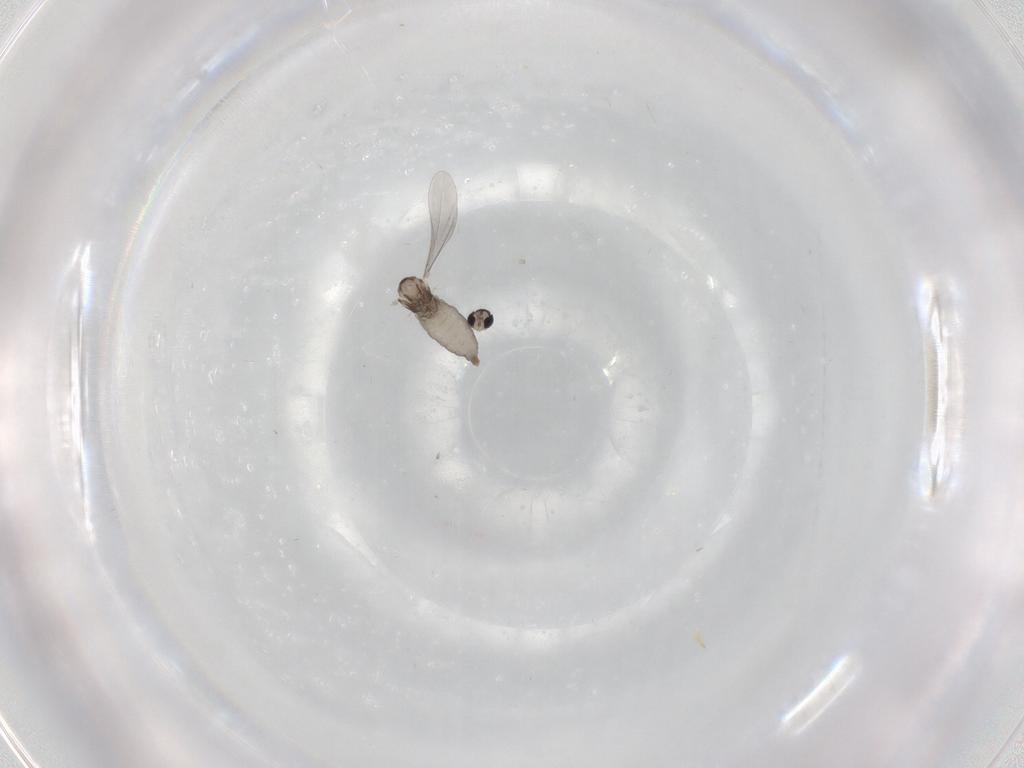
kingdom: Animalia
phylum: Arthropoda
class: Insecta
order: Diptera
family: Cecidomyiidae
